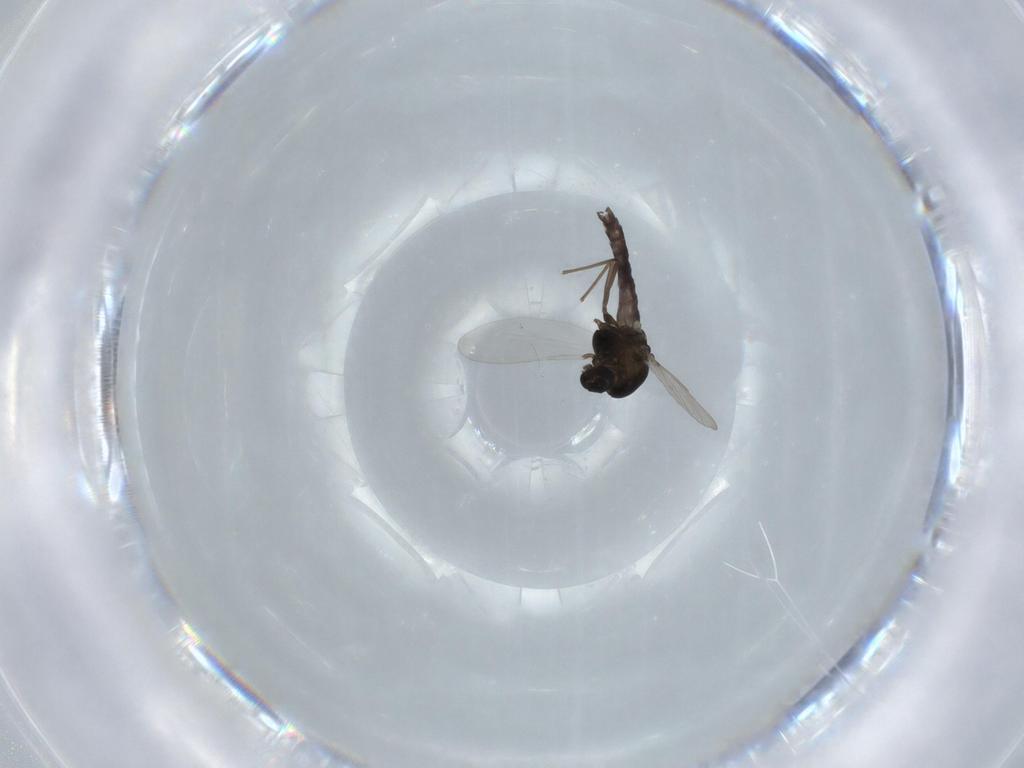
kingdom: Animalia
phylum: Arthropoda
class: Insecta
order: Diptera
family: Chironomidae
